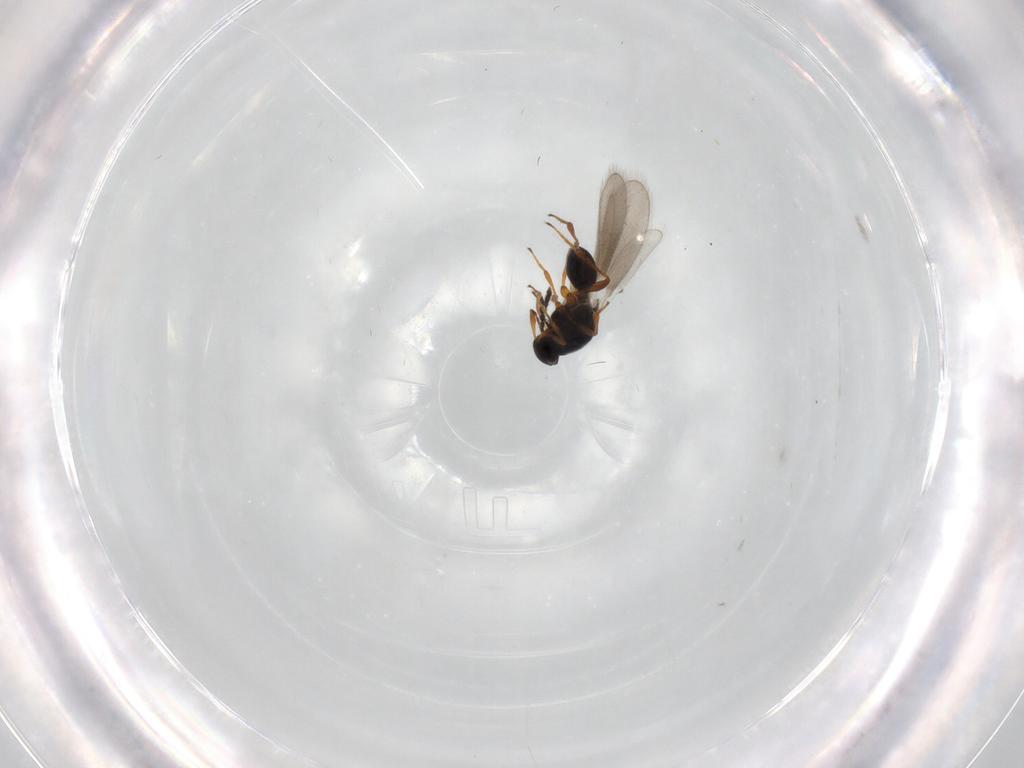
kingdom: Animalia
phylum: Arthropoda
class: Insecta
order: Hymenoptera
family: Platygastridae
